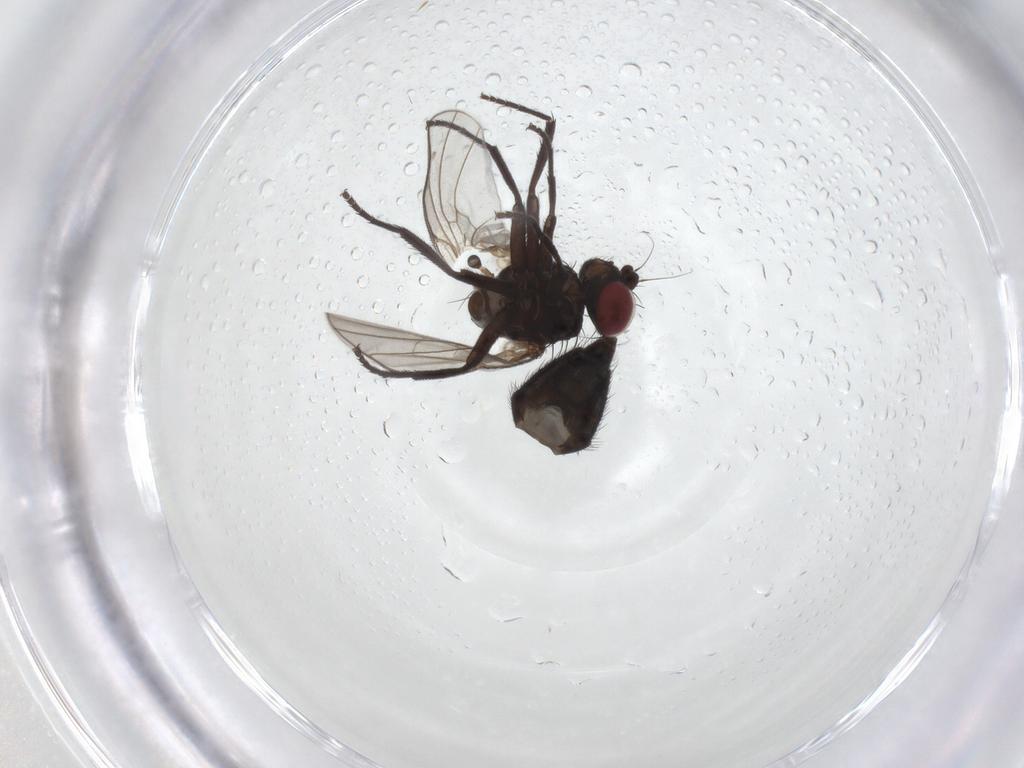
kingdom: Animalia
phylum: Arthropoda
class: Insecta
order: Diptera
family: Agromyzidae
